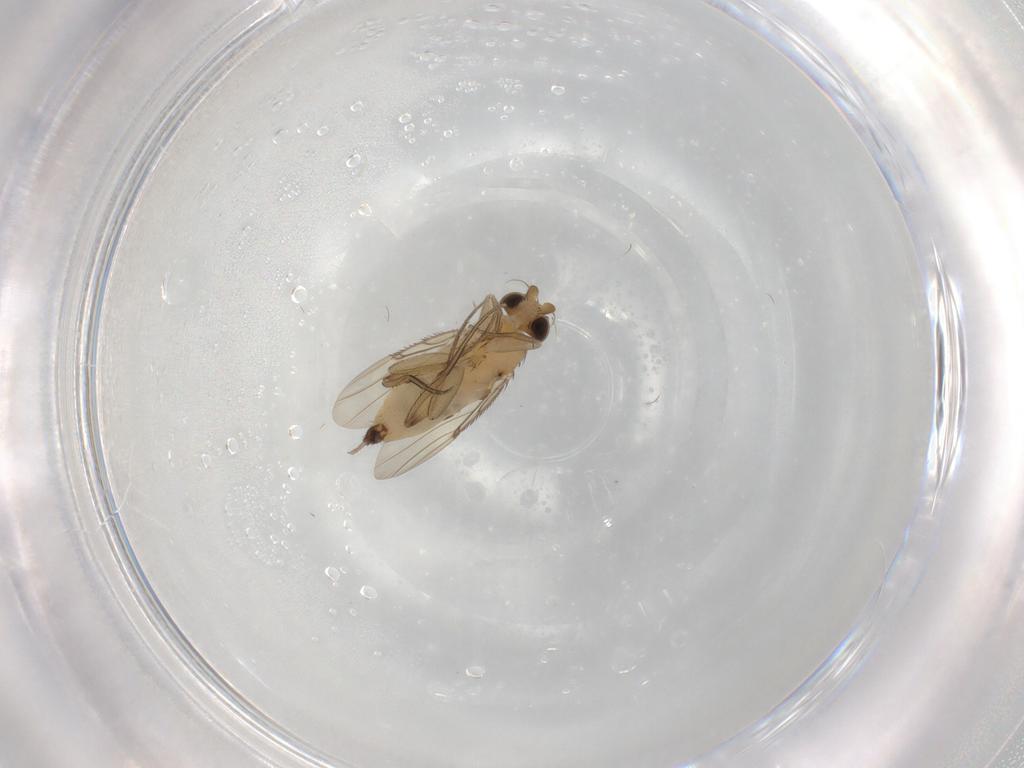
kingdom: Animalia
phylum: Arthropoda
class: Insecta
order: Diptera
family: Phoridae
